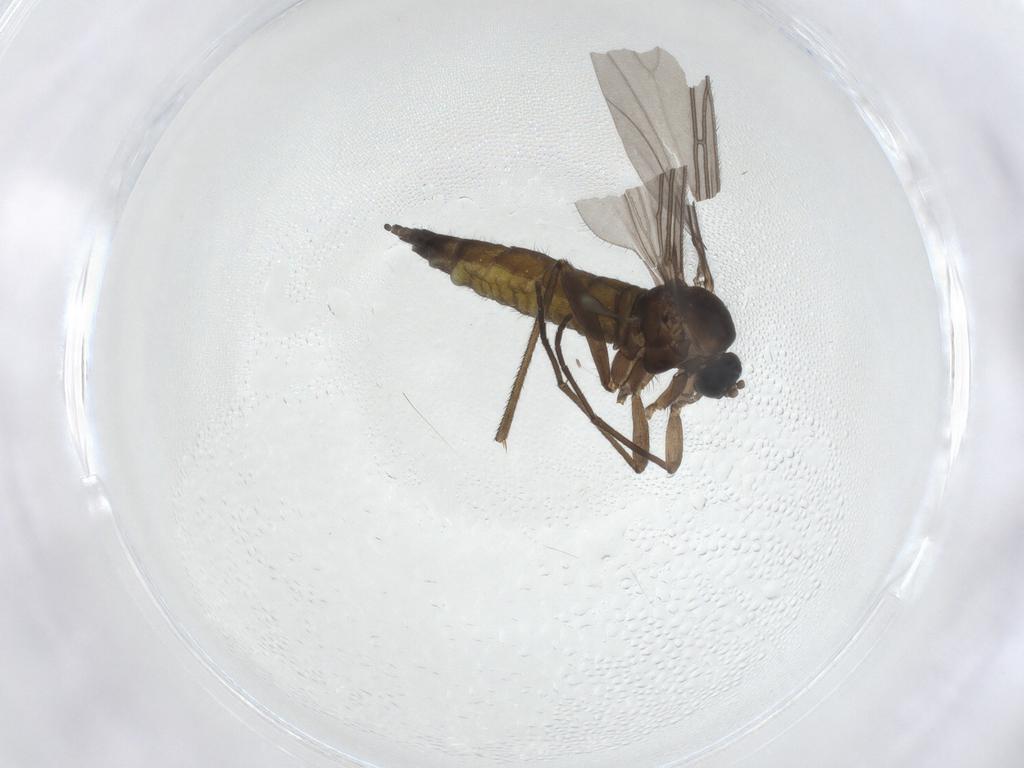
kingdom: Animalia
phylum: Arthropoda
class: Insecta
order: Diptera
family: Sciaridae
